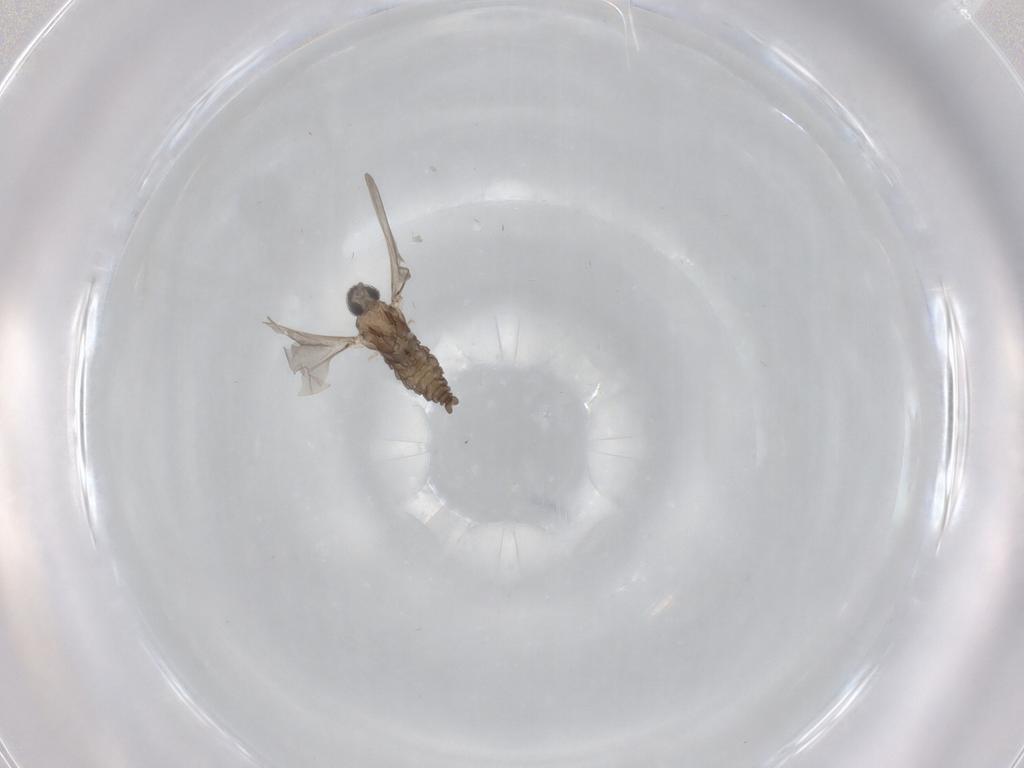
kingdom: Animalia
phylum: Arthropoda
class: Insecta
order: Diptera
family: Cecidomyiidae
